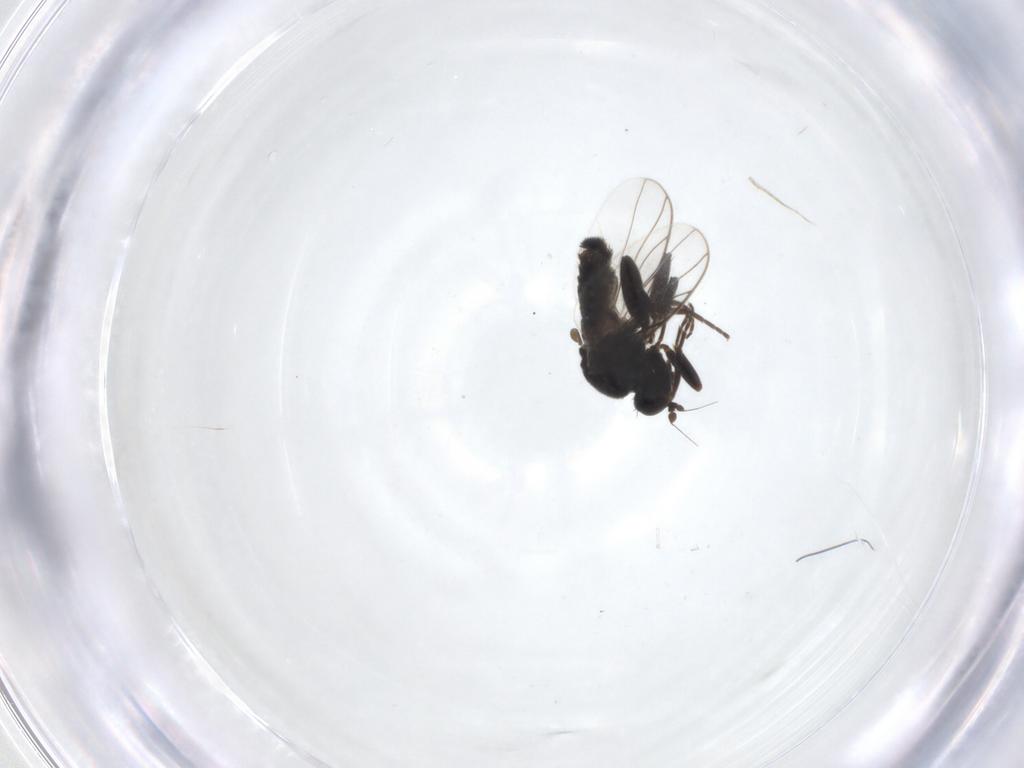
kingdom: Animalia
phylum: Arthropoda
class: Insecta
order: Diptera
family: Hybotidae
